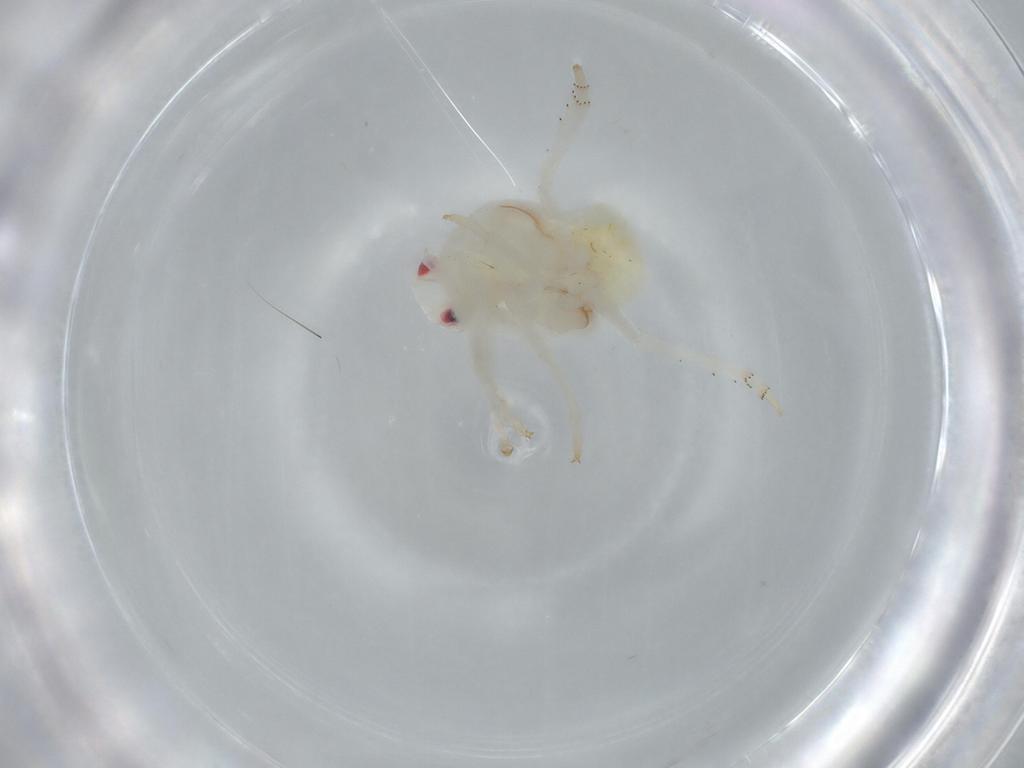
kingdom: Animalia
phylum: Arthropoda
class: Insecta
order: Hemiptera
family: Flatidae
